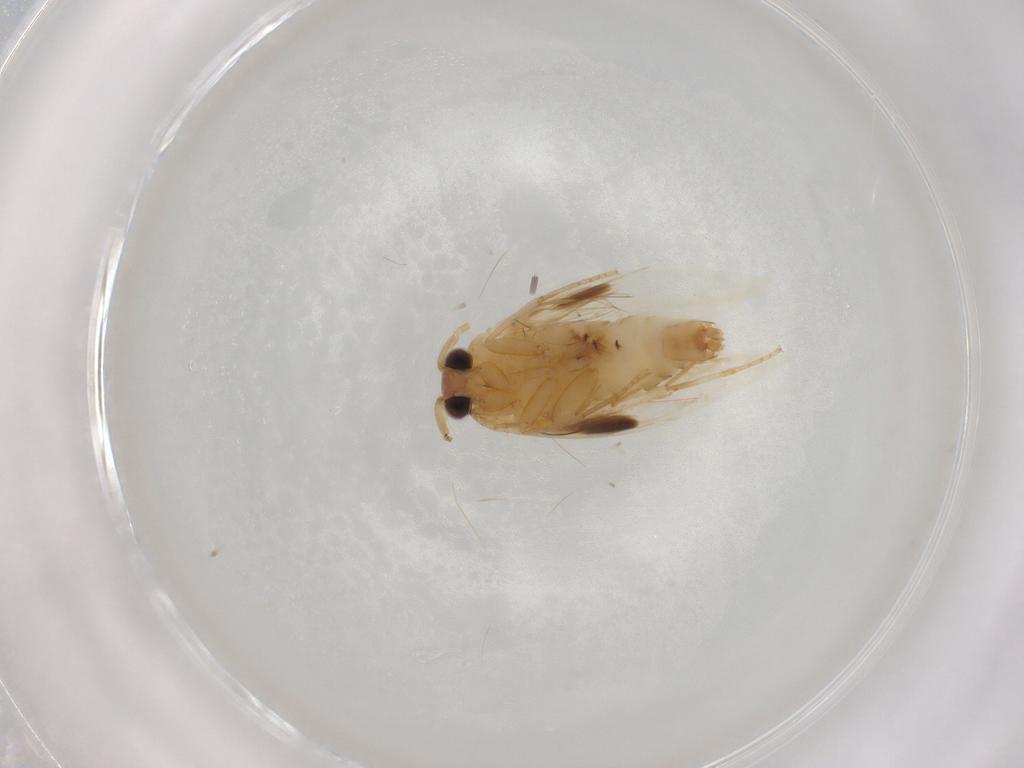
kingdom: Animalia
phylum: Arthropoda
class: Insecta
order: Lepidoptera
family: Nepticulidae
